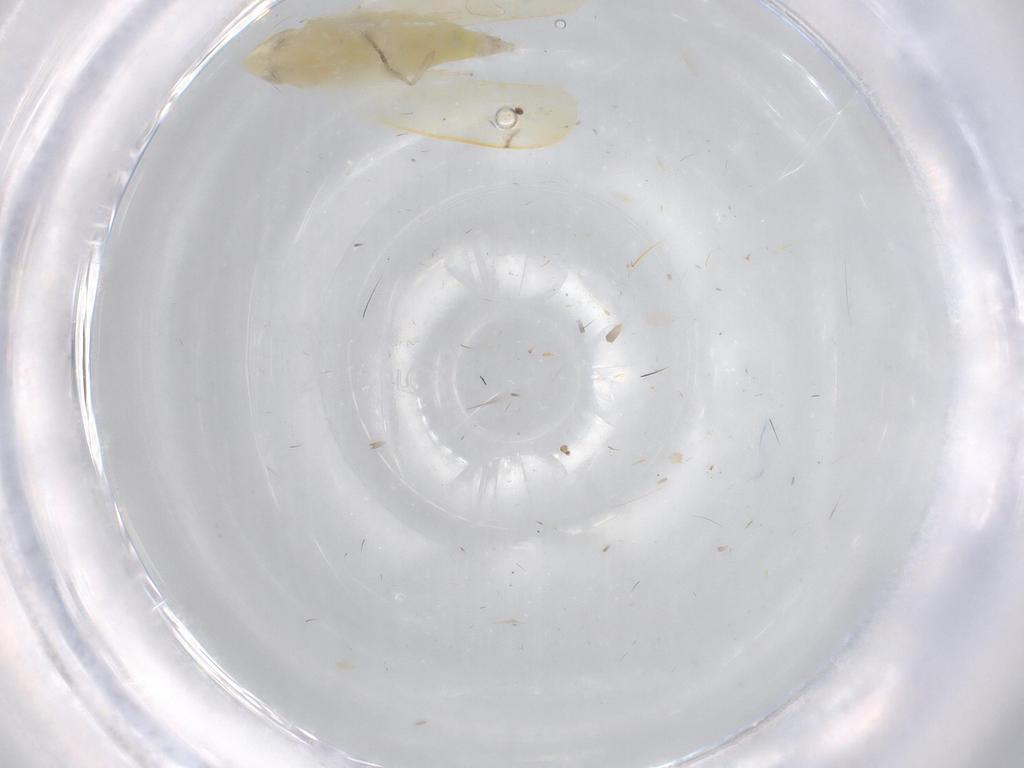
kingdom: Animalia
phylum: Arthropoda
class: Insecta
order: Hemiptera
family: Cicadellidae
